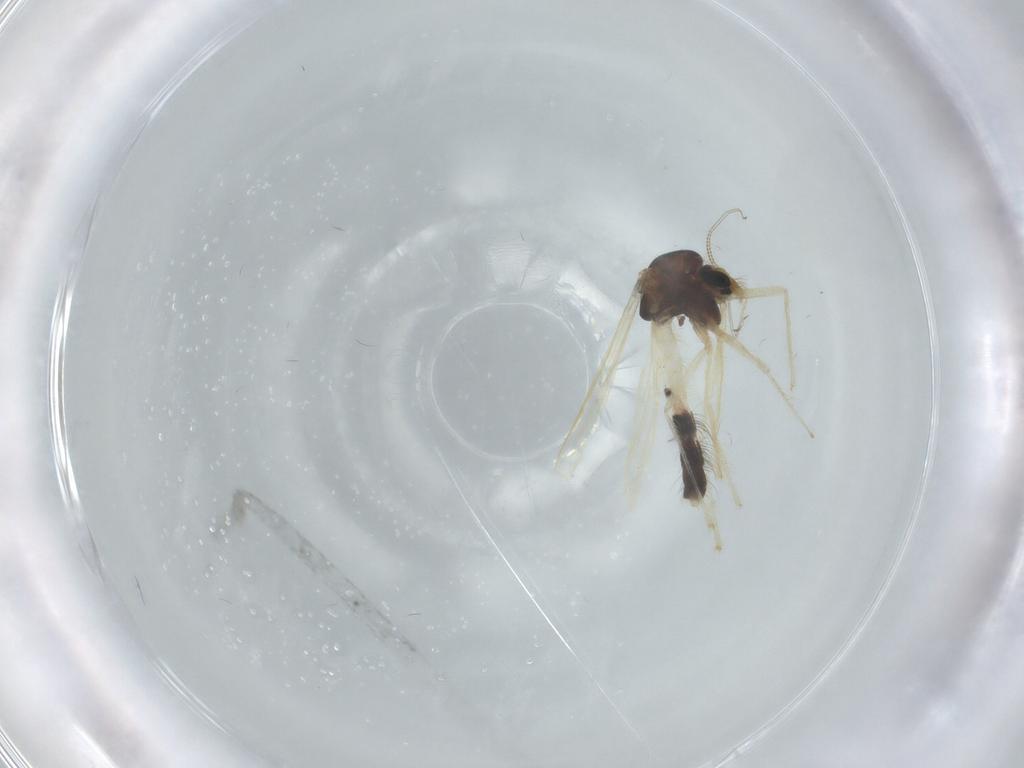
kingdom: Animalia
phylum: Arthropoda
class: Insecta
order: Diptera
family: Chironomidae
